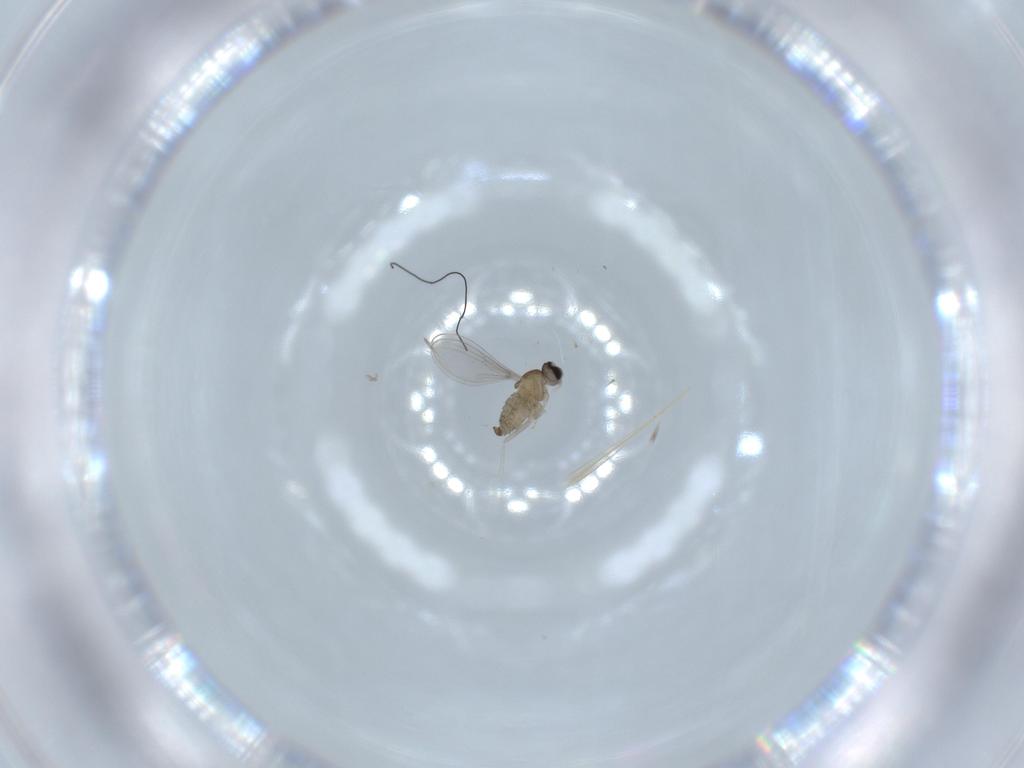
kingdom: Animalia
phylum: Arthropoda
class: Insecta
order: Diptera
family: Cecidomyiidae
